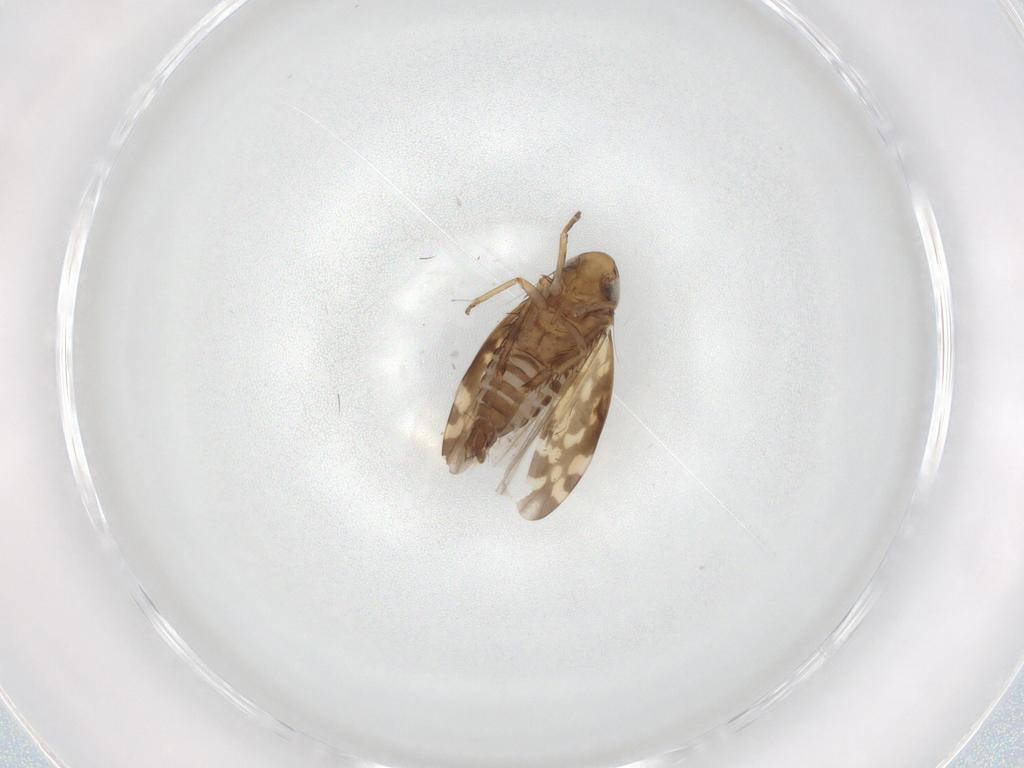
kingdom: Animalia
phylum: Arthropoda
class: Insecta
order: Hemiptera
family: Cicadellidae
